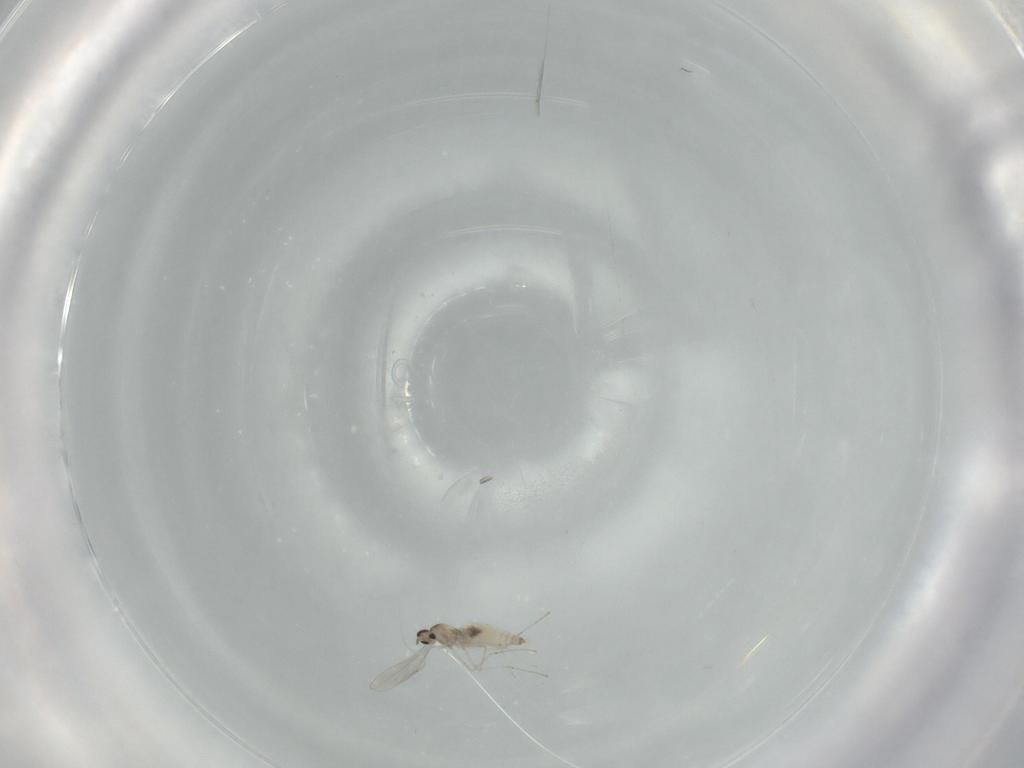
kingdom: Animalia
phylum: Arthropoda
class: Insecta
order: Diptera
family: Cecidomyiidae
